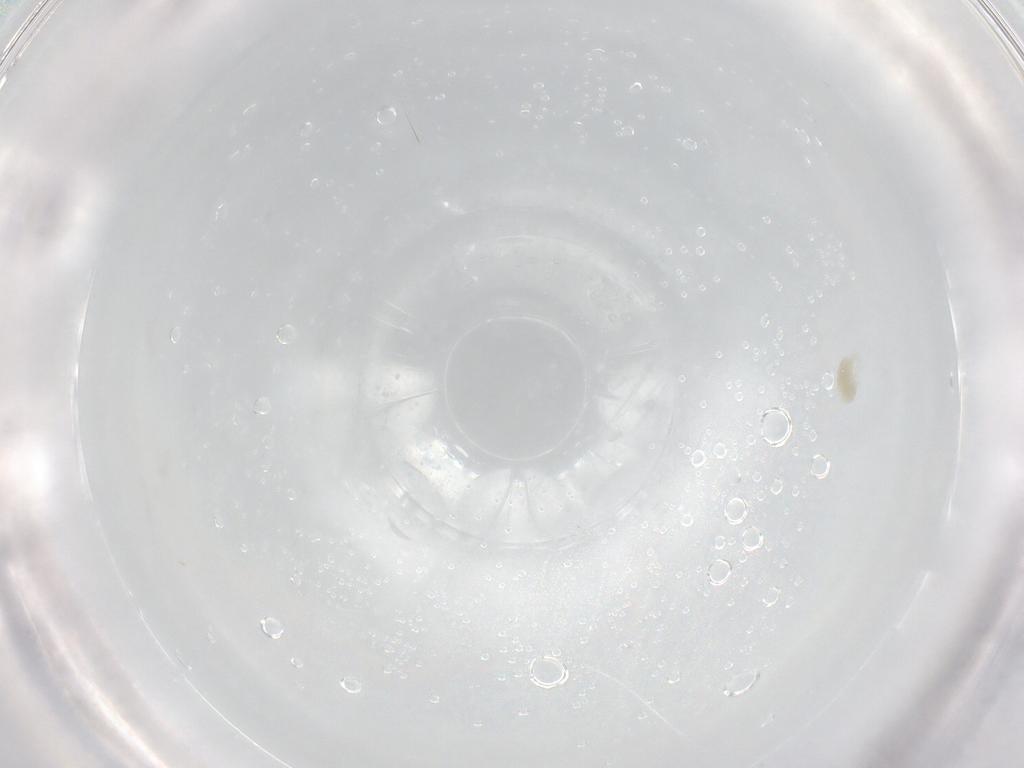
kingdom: Animalia
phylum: Arthropoda
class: Arachnida
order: Trombidiformes
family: Eupodidae
